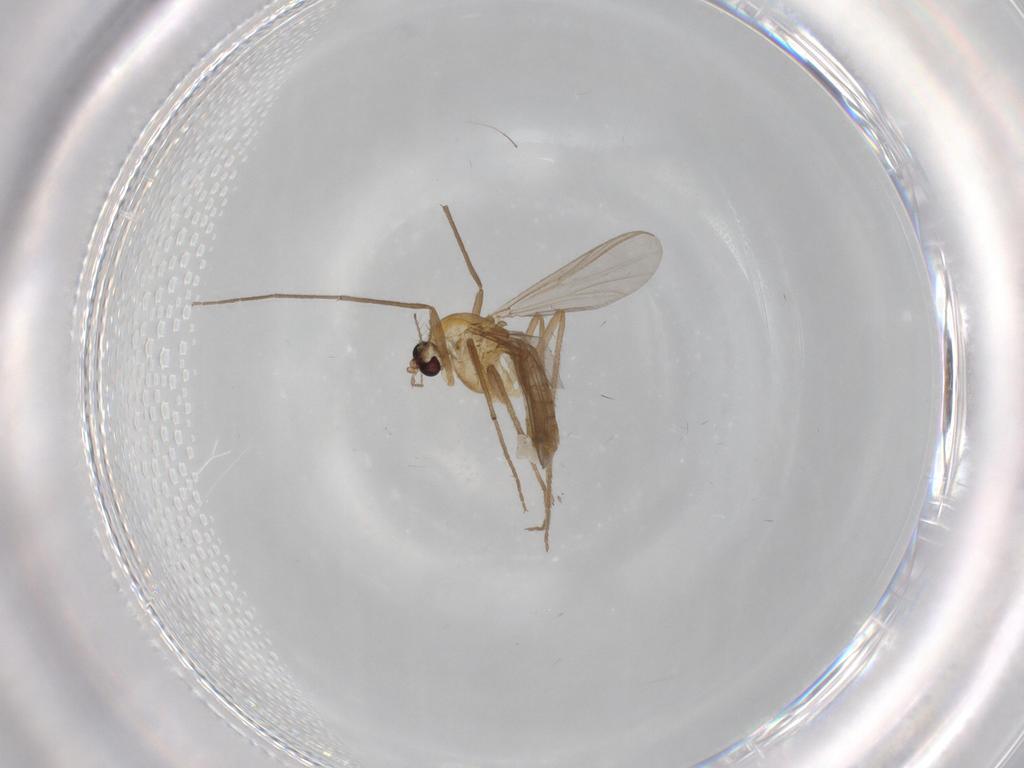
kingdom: Animalia
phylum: Arthropoda
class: Insecta
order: Diptera
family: Chironomidae
